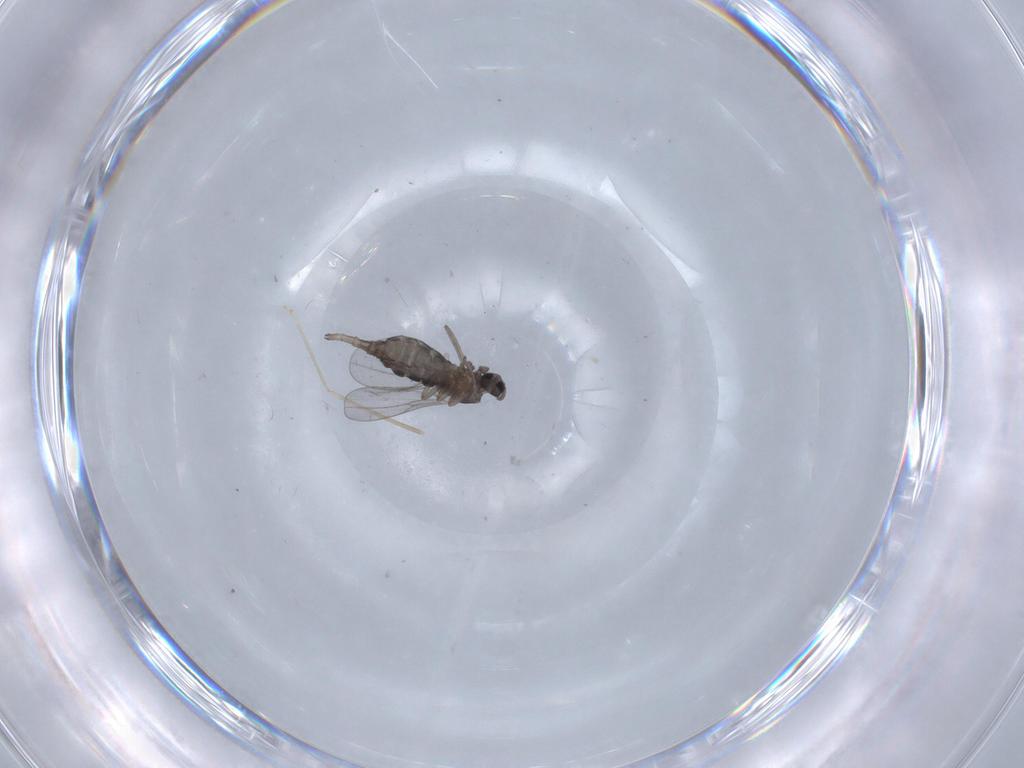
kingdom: Animalia
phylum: Arthropoda
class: Insecta
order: Diptera
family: Cecidomyiidae
